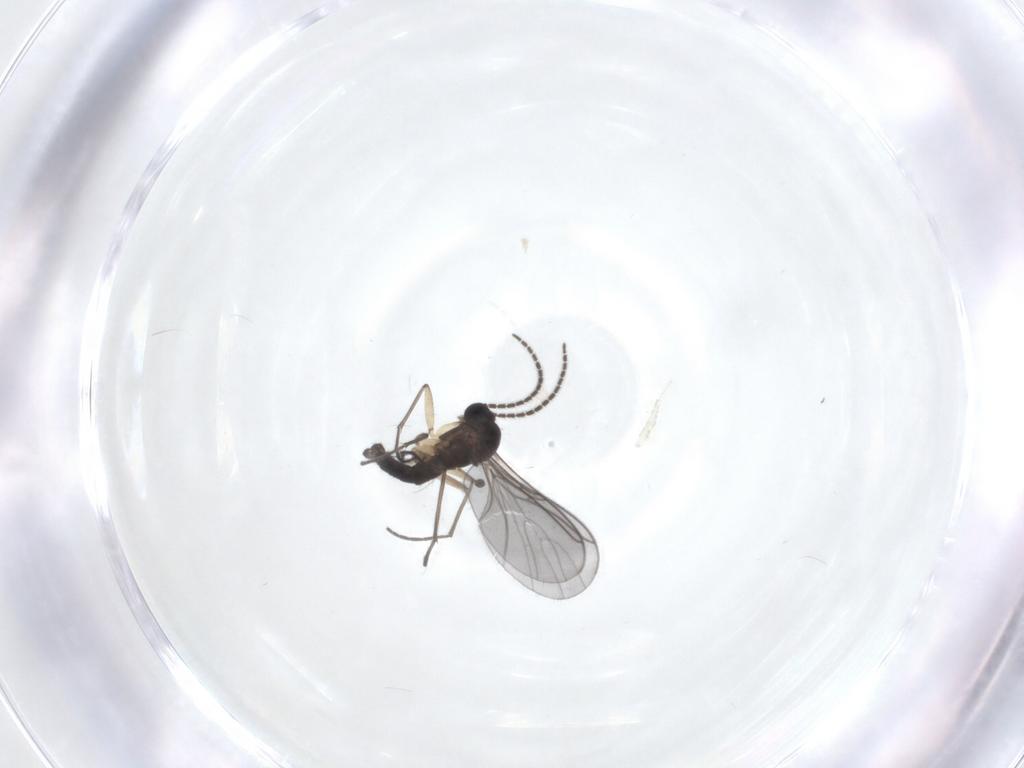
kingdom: Animalia
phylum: Arthropoda
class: Insecta
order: Diptera
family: Sciaridae
